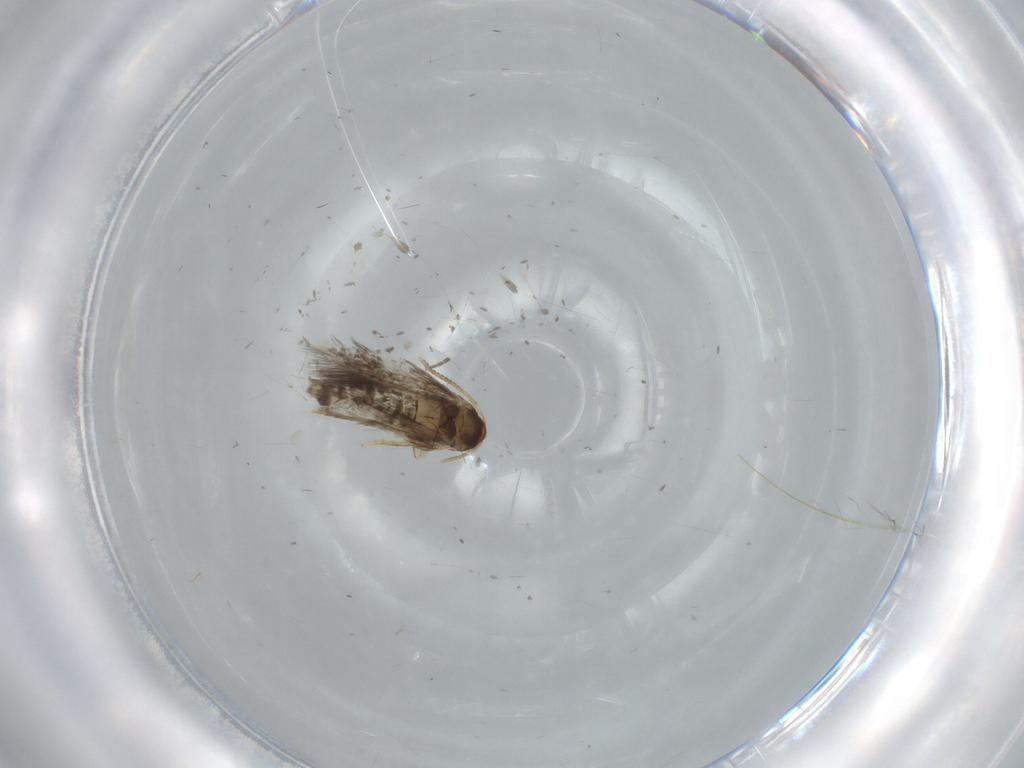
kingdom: Animalia
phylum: Arthropoda
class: Insecta
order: Lepidoptera
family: Copromorphidae
